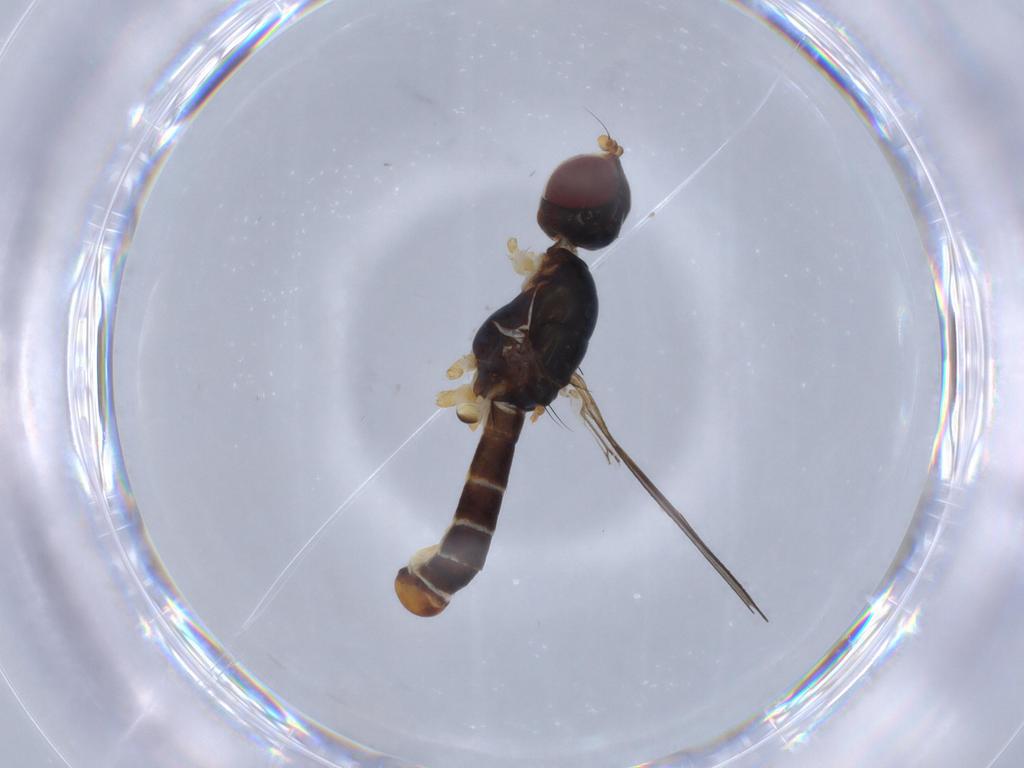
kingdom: Animalia
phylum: Arthropoda
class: Insecta
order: Diptera
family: Micropezidae
